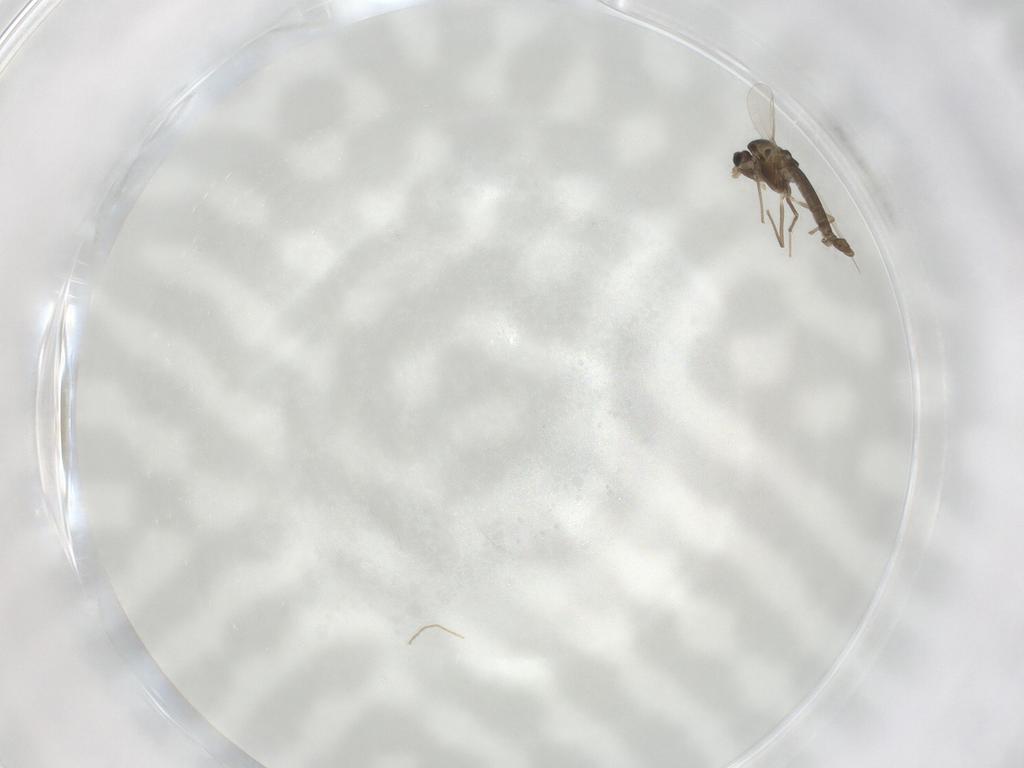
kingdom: Animalia
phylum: Arthropoda
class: Insecta
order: Diptera
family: Chironomidae
